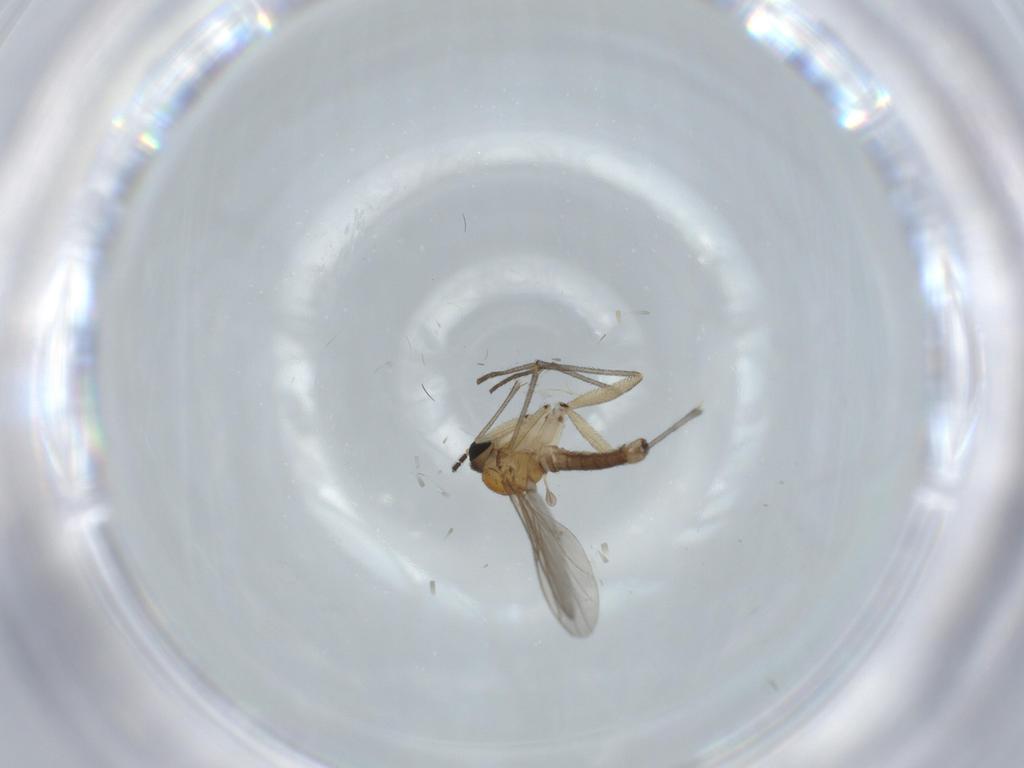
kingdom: Animalia
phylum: Arthropoda
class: Insecta
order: Diptera
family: Sciaridae
